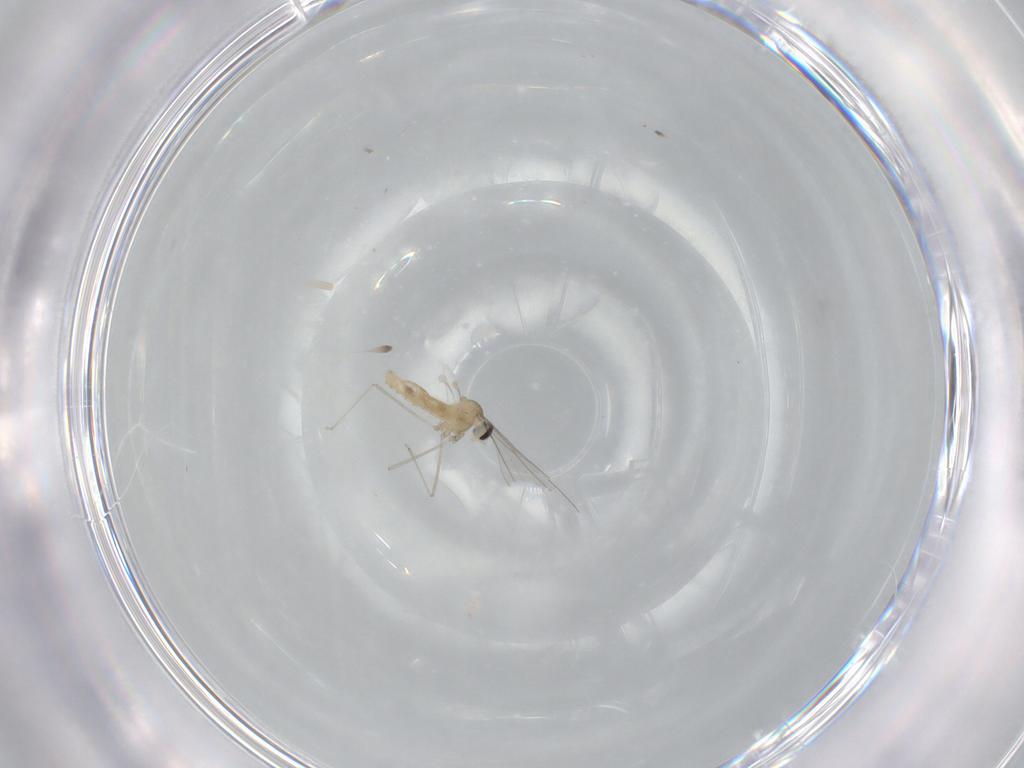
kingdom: Animalia
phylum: Arthropoda
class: Insecta
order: Diptera
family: Cecidomyiidae
